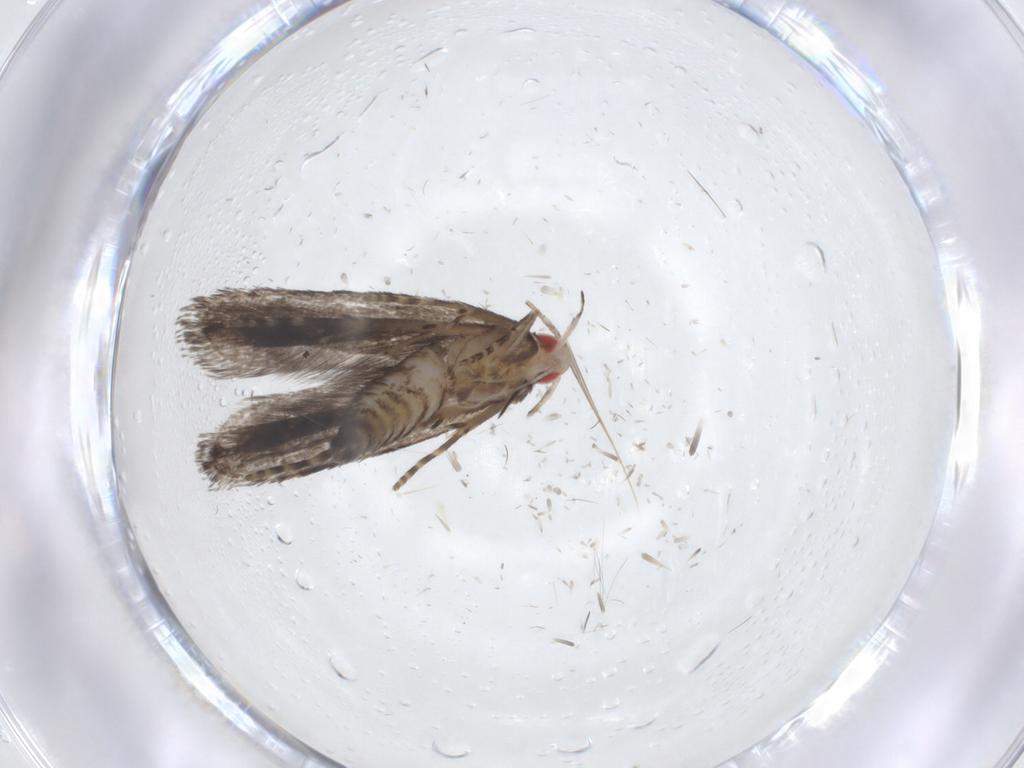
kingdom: Animalia
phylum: Arthropoda
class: Insecta
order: Lepidoptera
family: Gelechiidae
